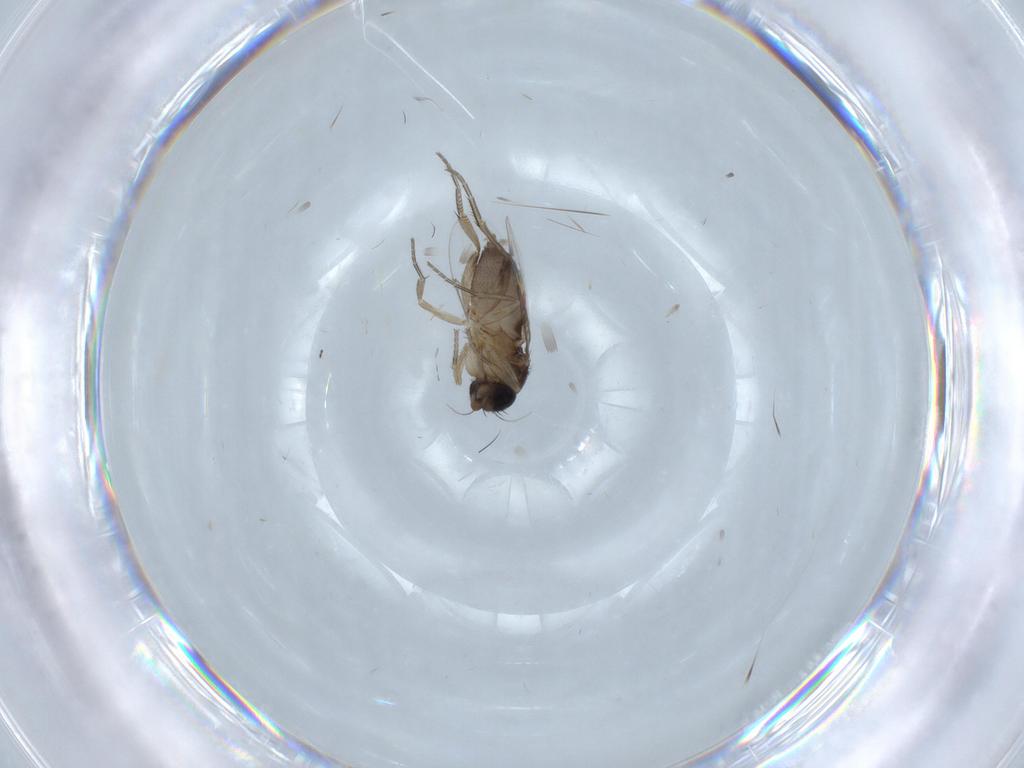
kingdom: Animalia
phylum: Arthropoda
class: Insecta
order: Diptera
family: Phoridae
